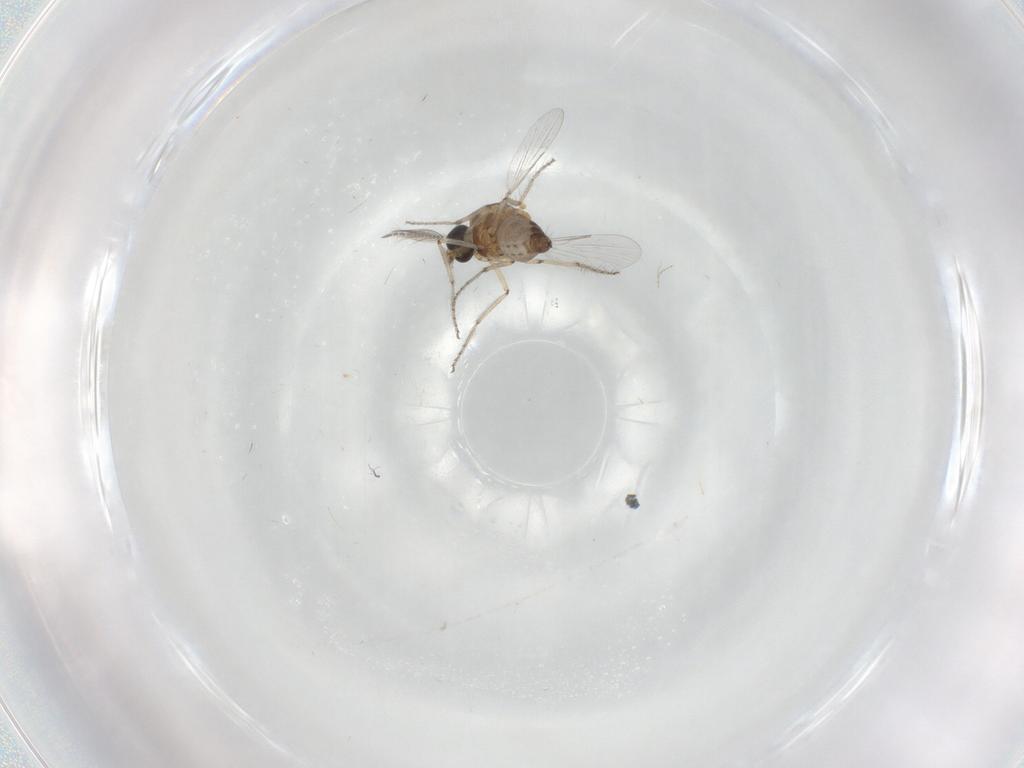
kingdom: Animalia
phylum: Arthropoda
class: Insecta
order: Diptera
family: Ceratopogonidae
